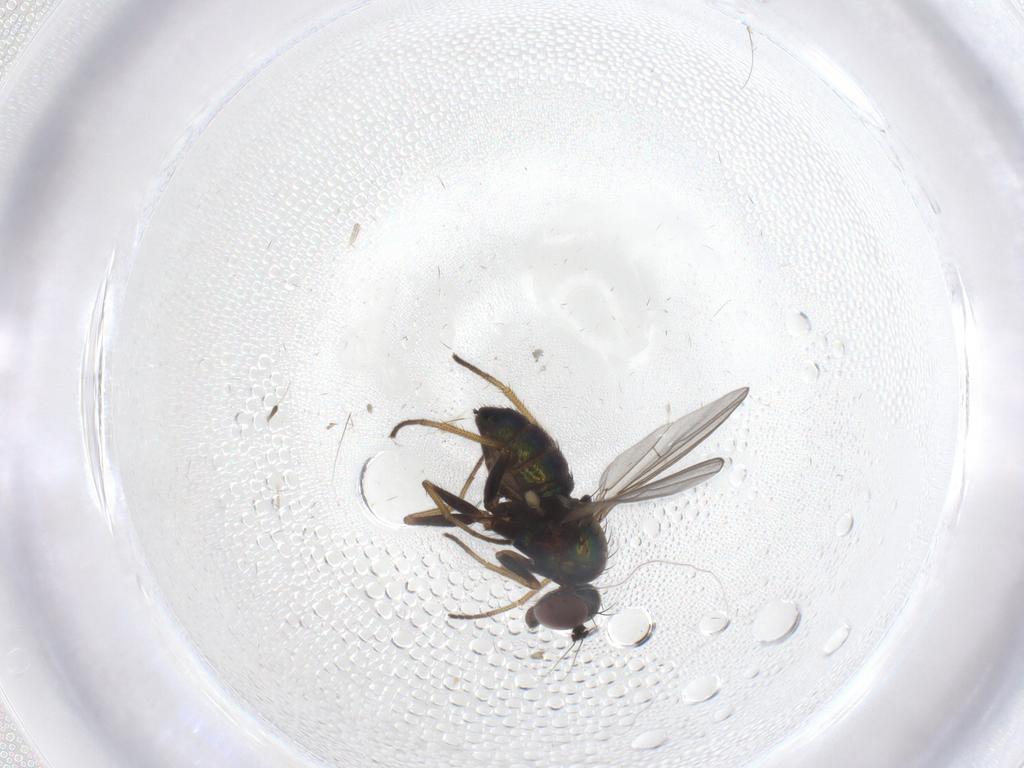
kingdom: Animalia
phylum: Arthropoda
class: Insecta
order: Diptera
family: Dolichopodidae
